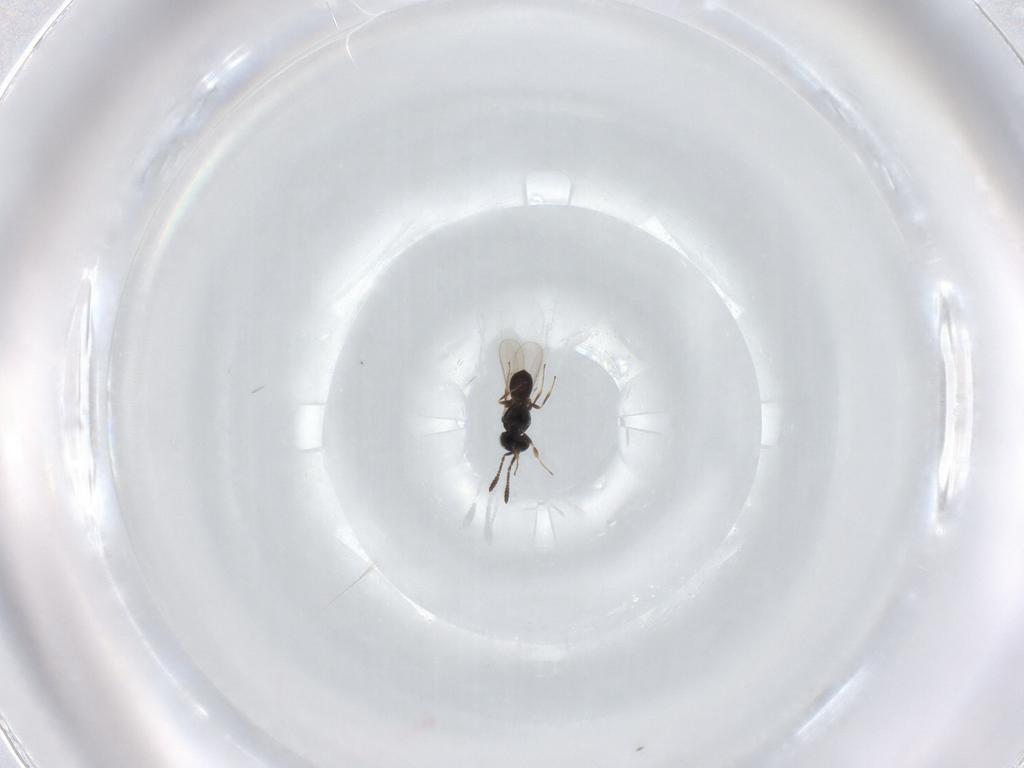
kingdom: Animalia
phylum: Arthropoda
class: Insecta
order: Hymenoptera
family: Scelionidae
